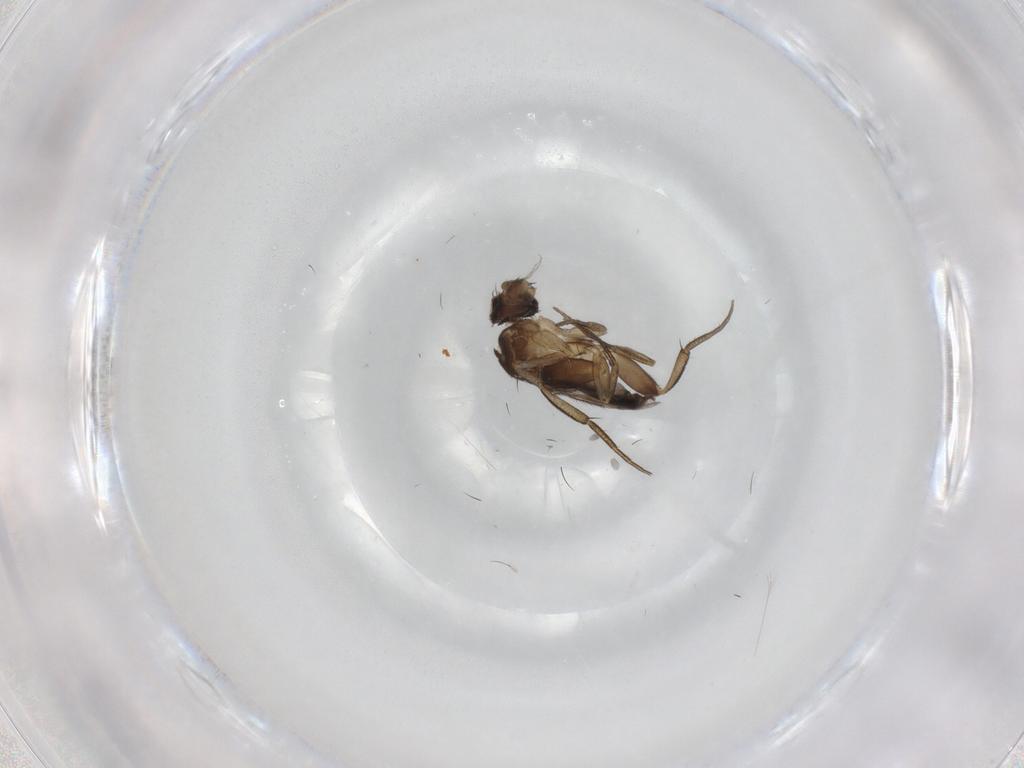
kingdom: Animalia
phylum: Arthropoda
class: Insecta
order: Diptera
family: Phoridae
